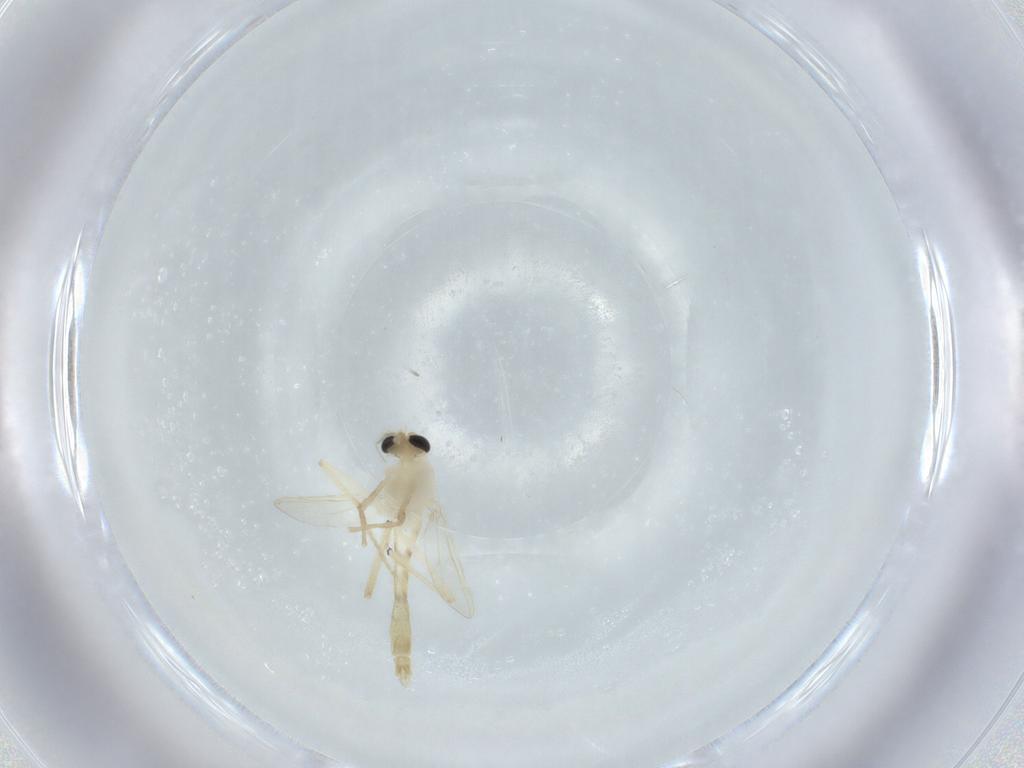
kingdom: Animalia
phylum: Arthropoda
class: Insecta
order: Diptera
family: Chironomidae
